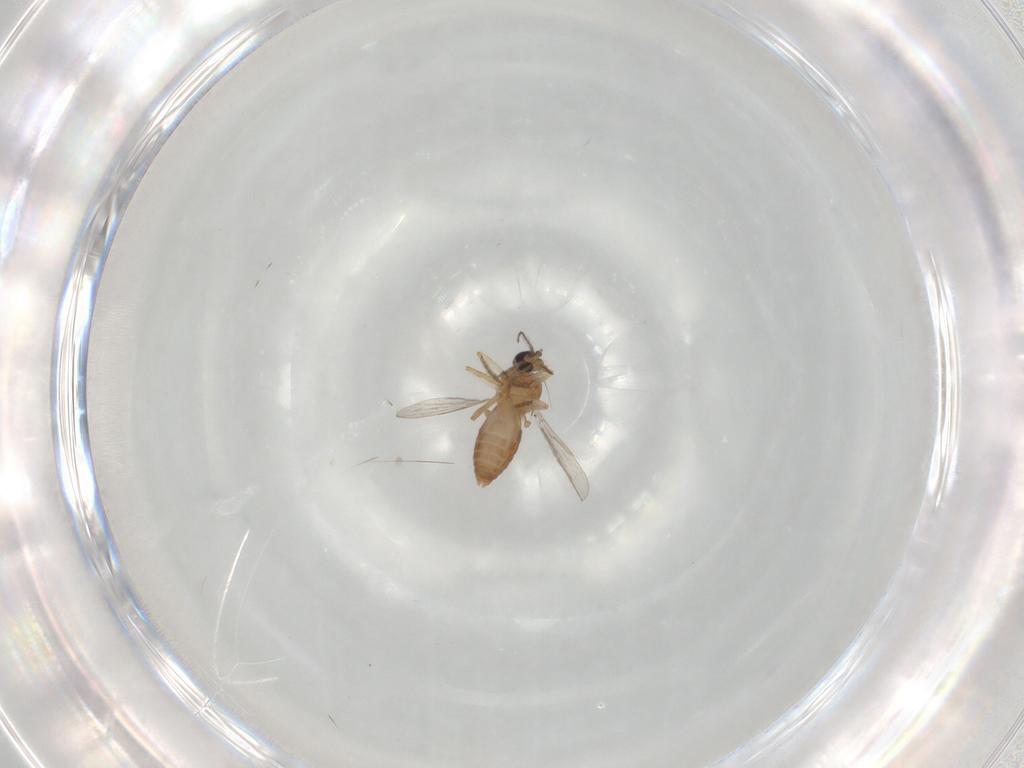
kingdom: Animalia
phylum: Arthropoda
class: Insecta
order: Diptera
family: Ceratopogonidae
